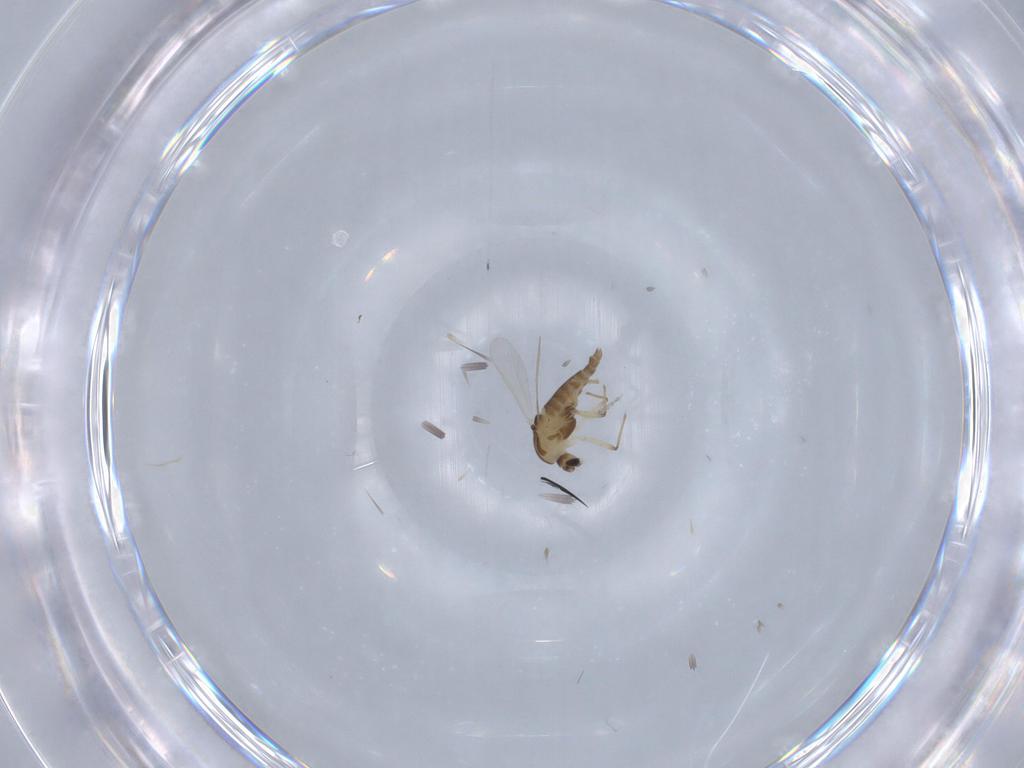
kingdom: Animalia
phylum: Arthropoda
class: Insecta
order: Diptera
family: Chironomidae
